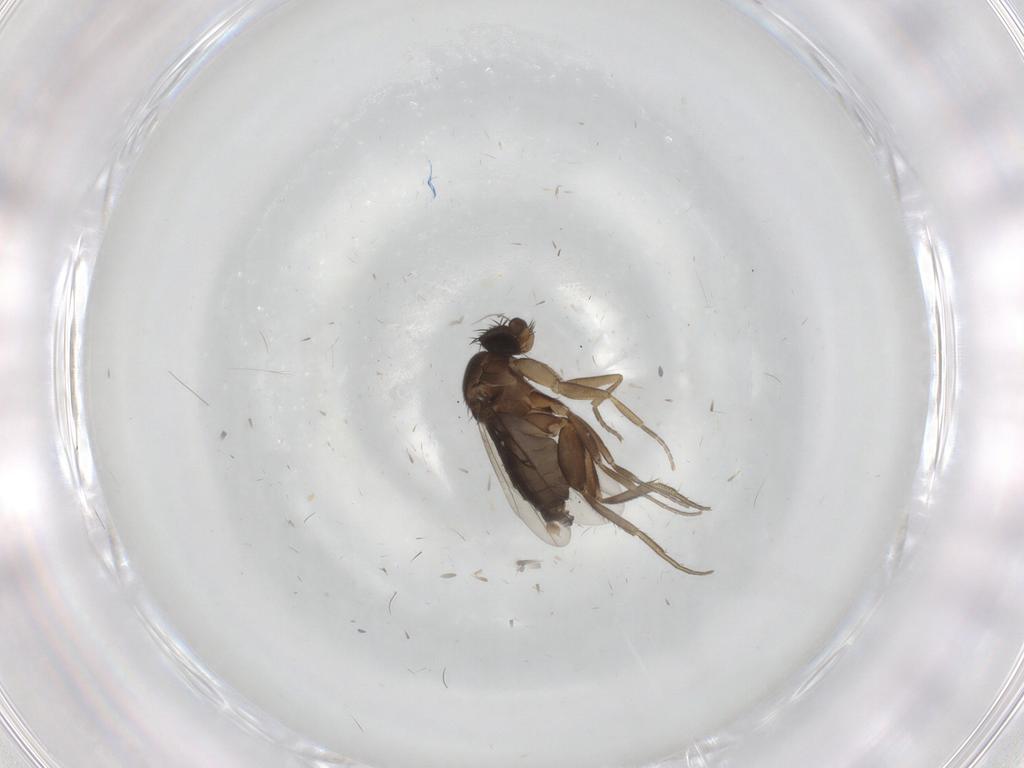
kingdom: Animalia
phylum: Arthropoda
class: Insecta
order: Diptera
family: Phoridae
